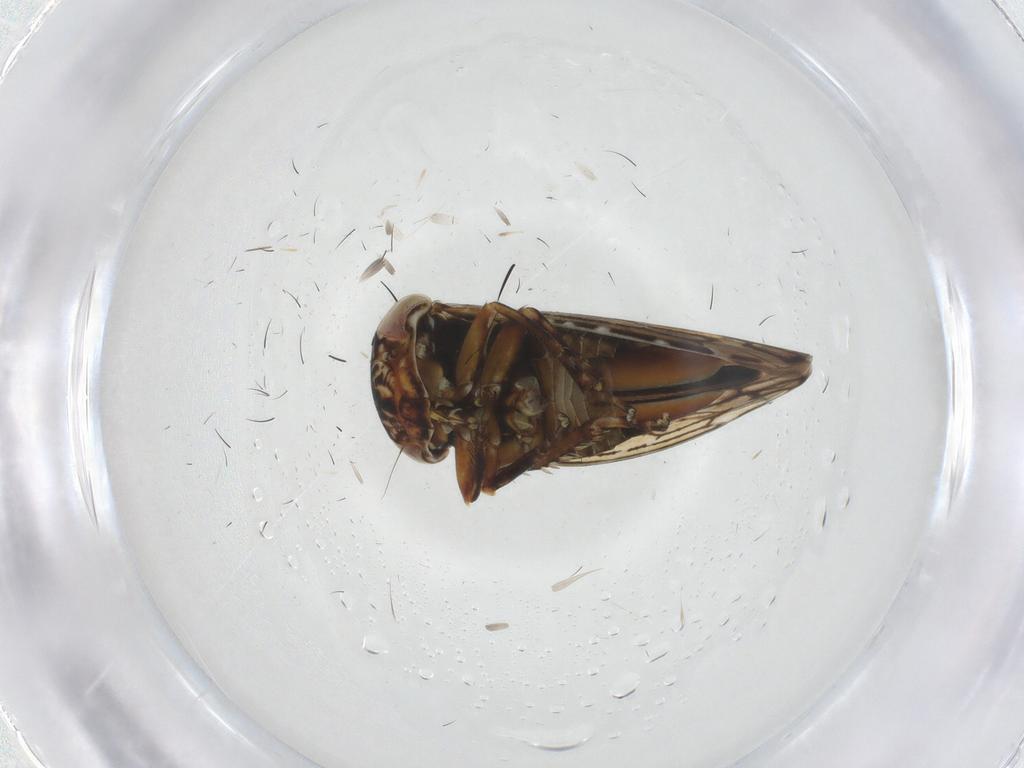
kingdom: Animalia
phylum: Arthropoda
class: Insecta
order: Hemiptera
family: Cicadellidae
